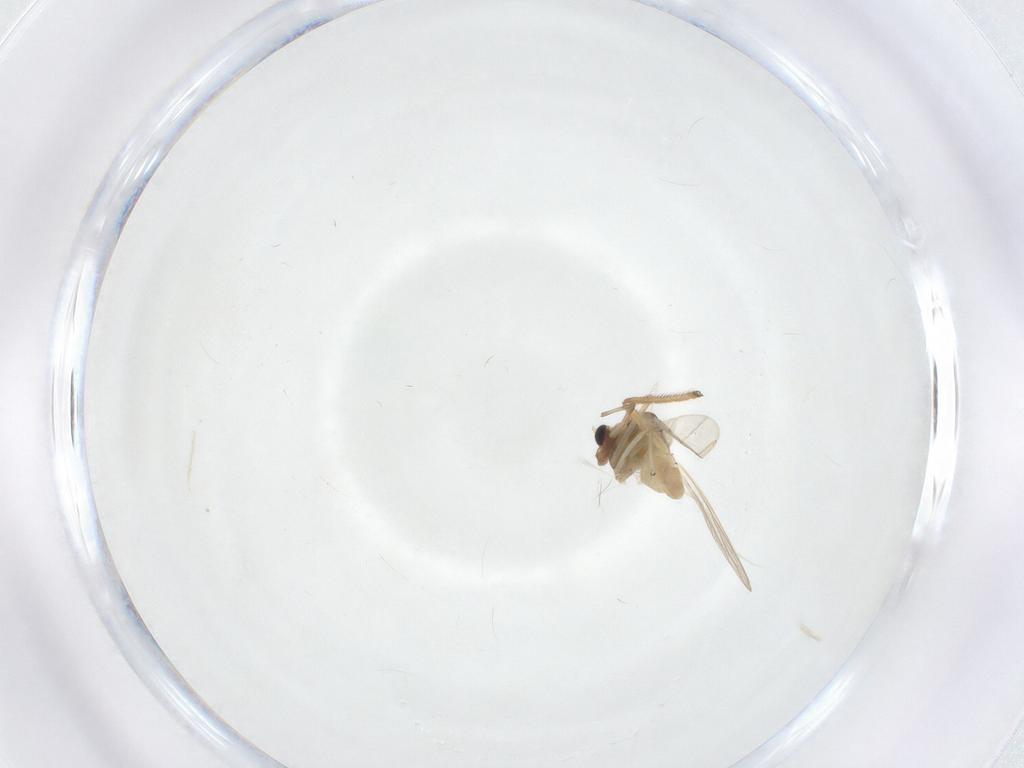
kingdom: Animalia
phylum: Arthropoda
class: Insecta
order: Diptera
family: Chironomidae
